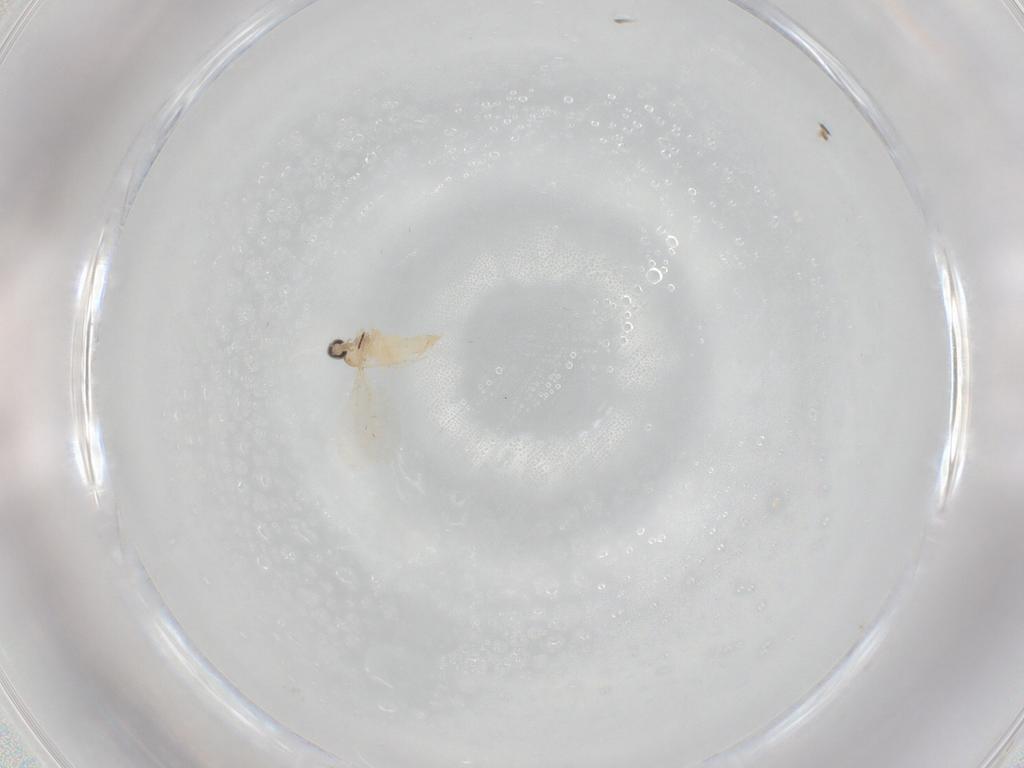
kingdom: Animalia
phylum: Arthropoda
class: Insecta
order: Diptera
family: Cecidomyiidae
